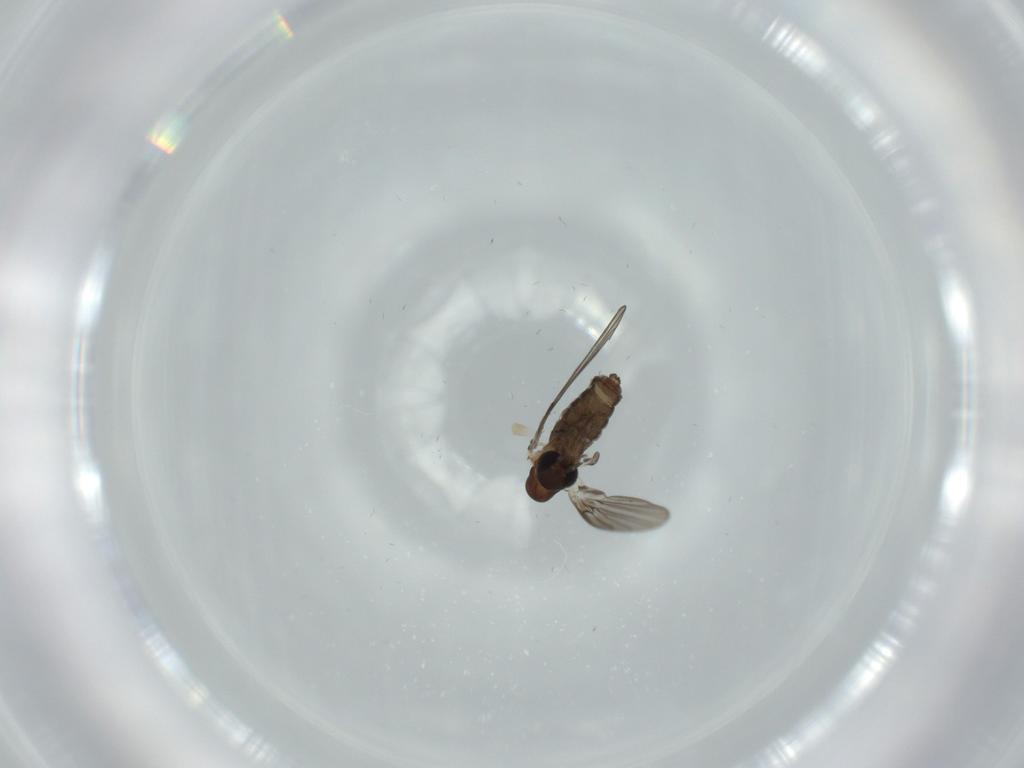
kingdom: Animalia
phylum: Arthropoda
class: Insecta
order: Diptera
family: Psychodidae
